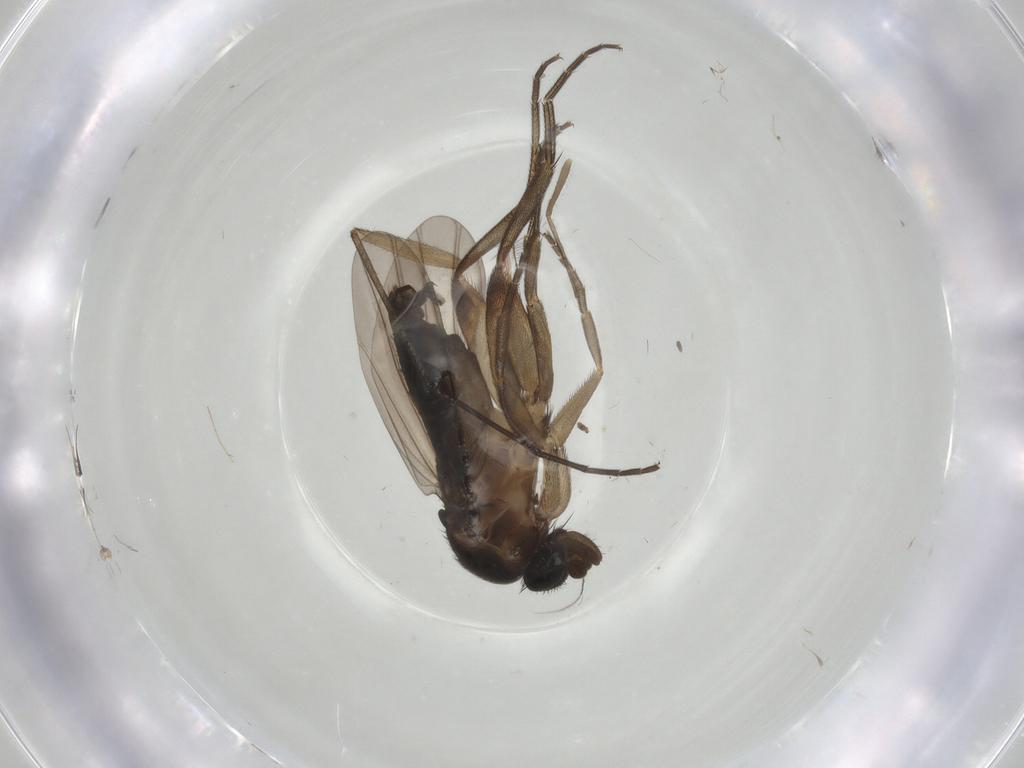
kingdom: Animalia
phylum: Arthropoda
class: Insecta
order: Diptera
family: Phoridae
